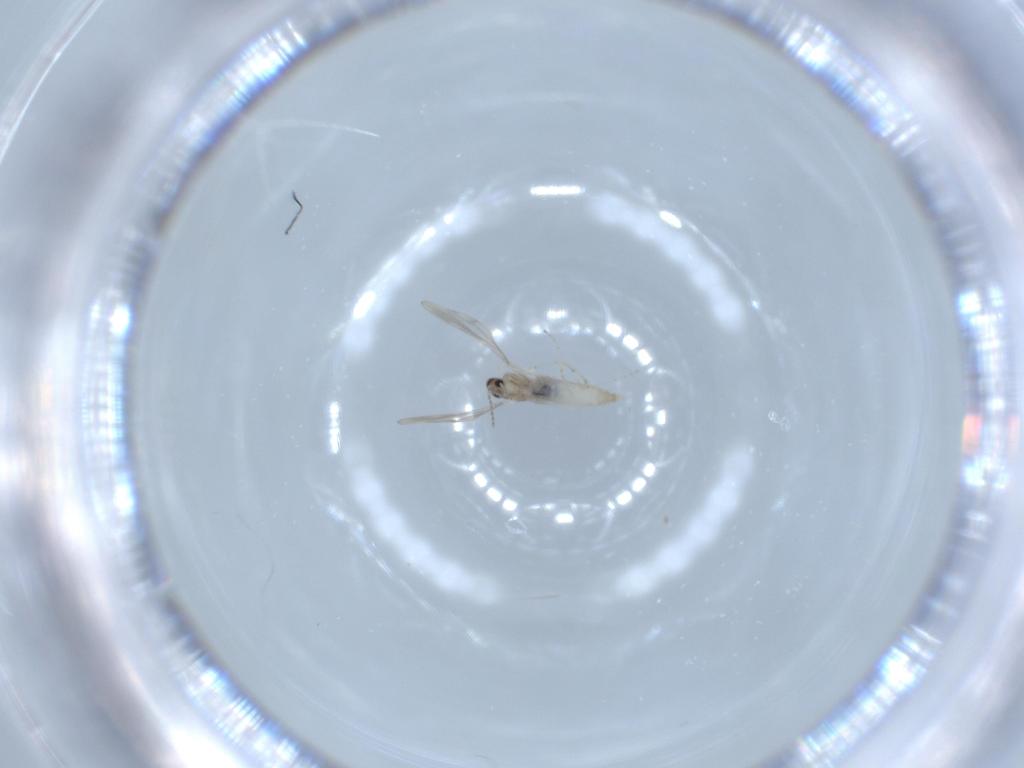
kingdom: Animalia
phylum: Arthropoda
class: Insecta
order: Diptera
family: Cecidomyiidae
